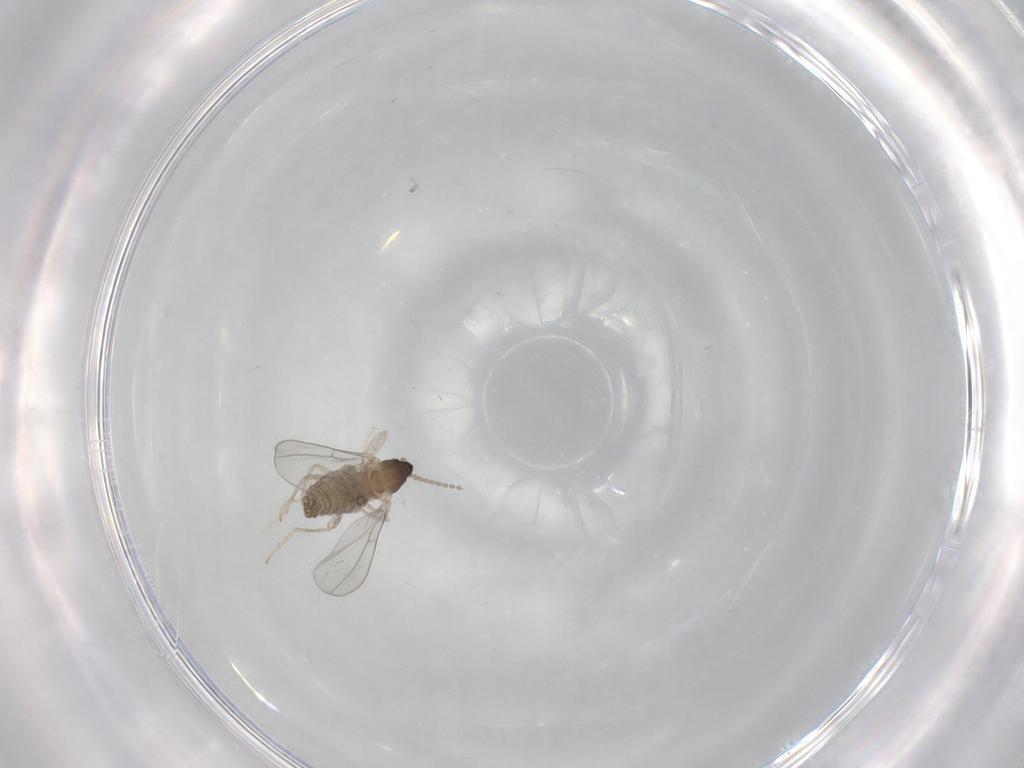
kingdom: Animalia
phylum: Arthropoda
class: Insecta
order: Diptera
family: Cecidomyiidae
